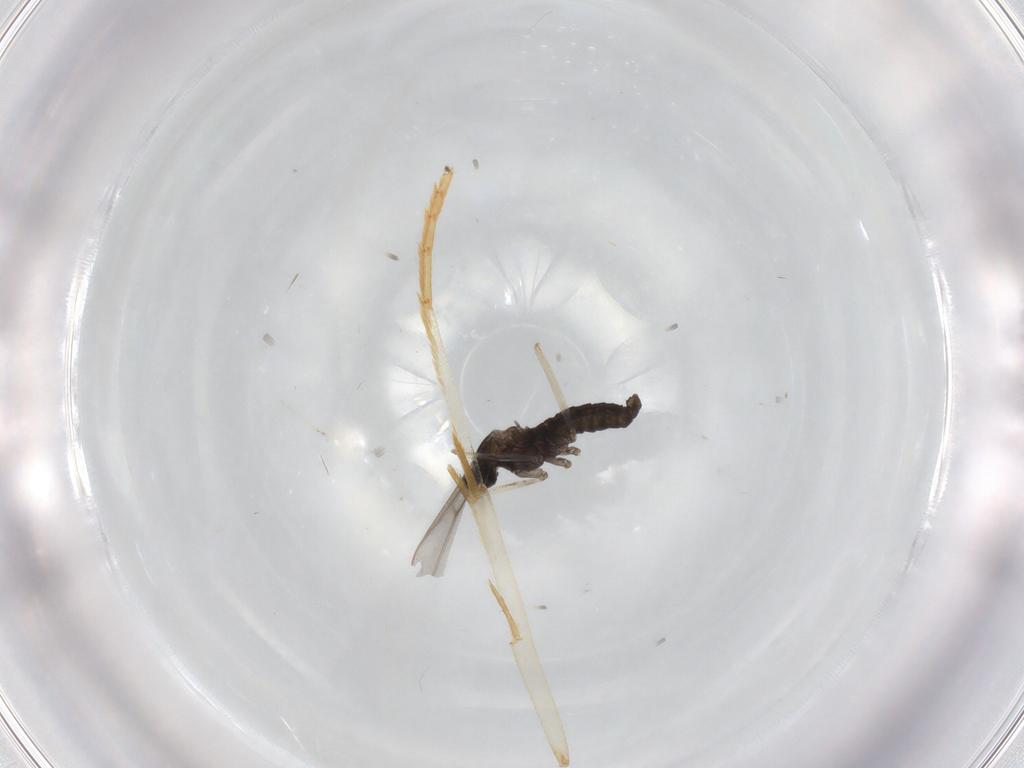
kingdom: Animalia
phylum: Arthropoda
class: Insecta
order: Diptera
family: Cecidomyiidae
